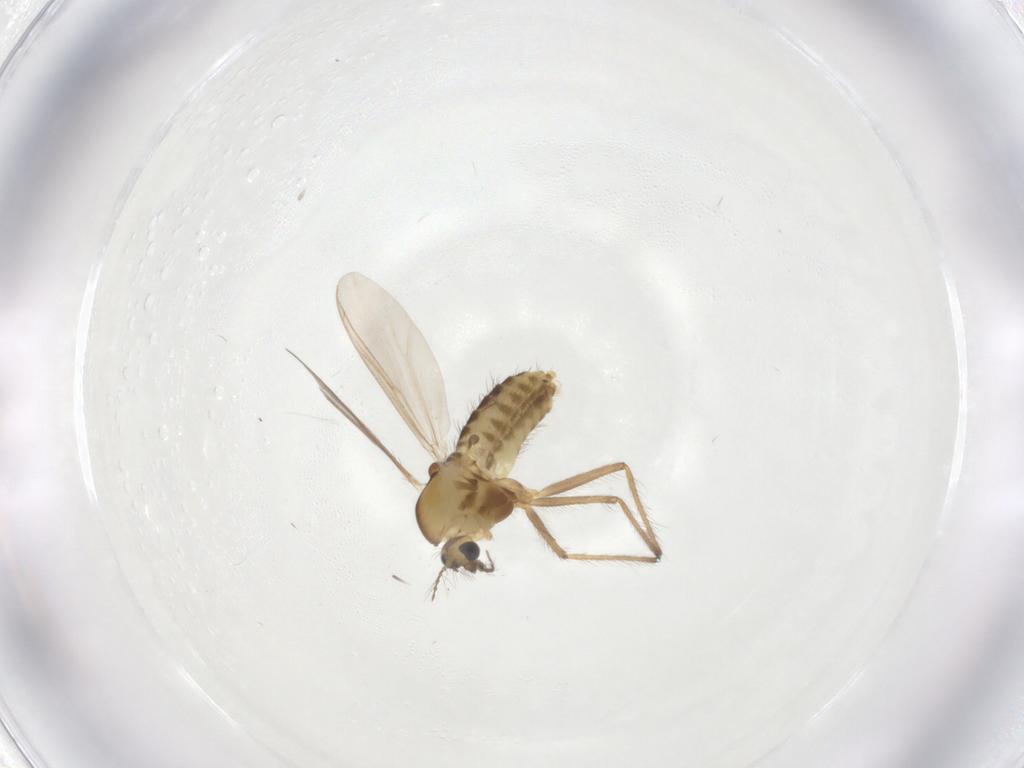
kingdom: Animalia
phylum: Arthropoda
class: Insecta
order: Diptera
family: Chironomidae
